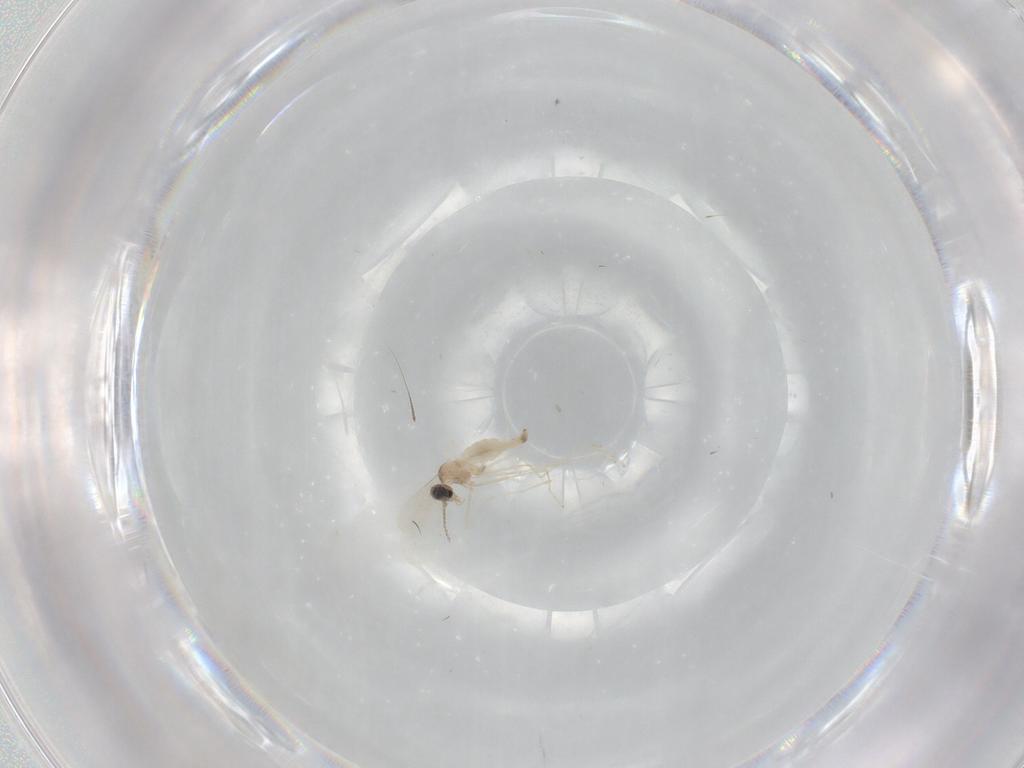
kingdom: Animalia
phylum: Arthropoda
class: Insecta
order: Diptera
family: Cecidomyiidae
